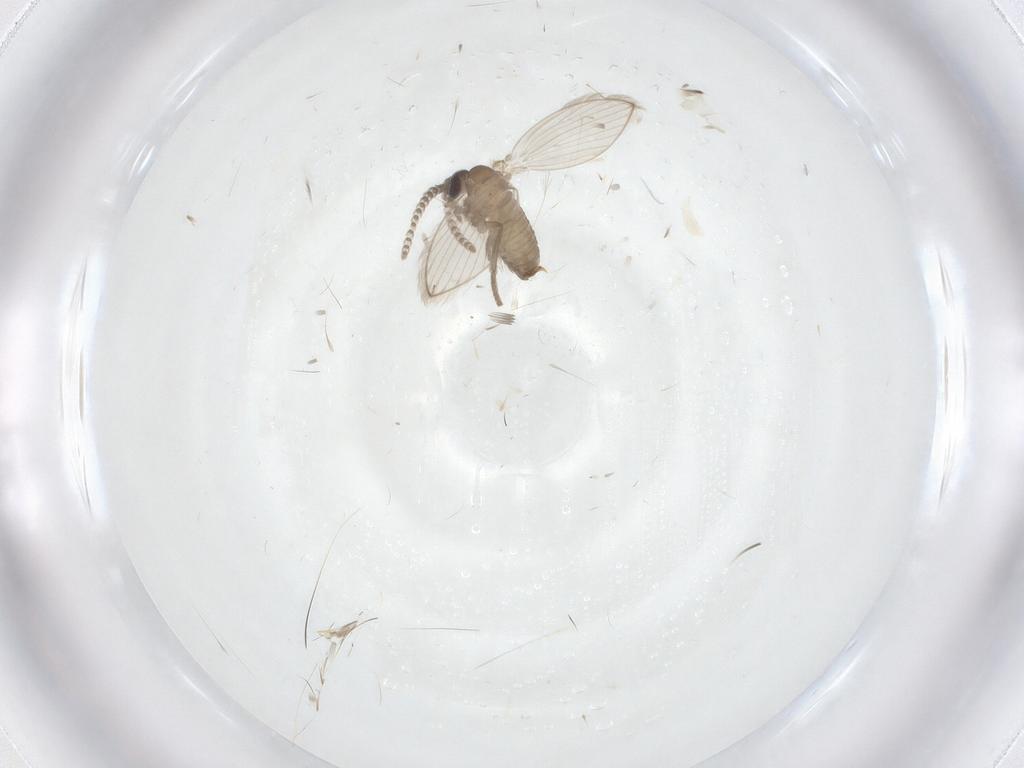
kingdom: Animalia
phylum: Arthropoda
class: Insecta
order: Diptera
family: Psychodidae
